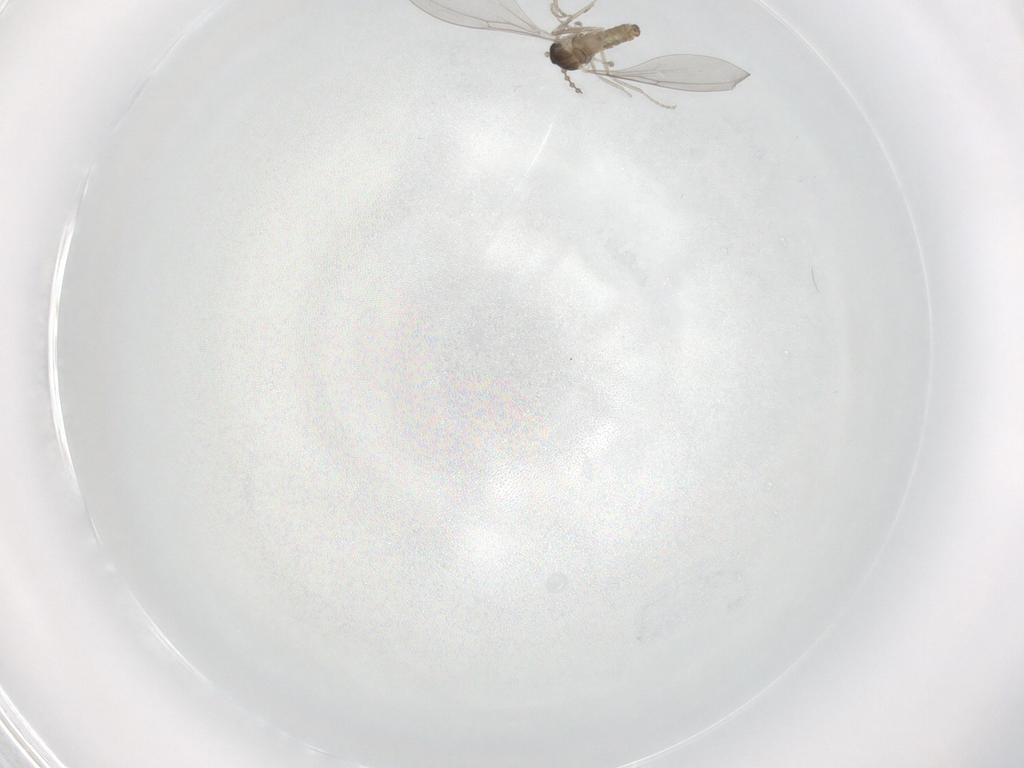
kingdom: Animalia
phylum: Arthropoda
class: Insecta
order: Diptera
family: Cecidomyiidae
